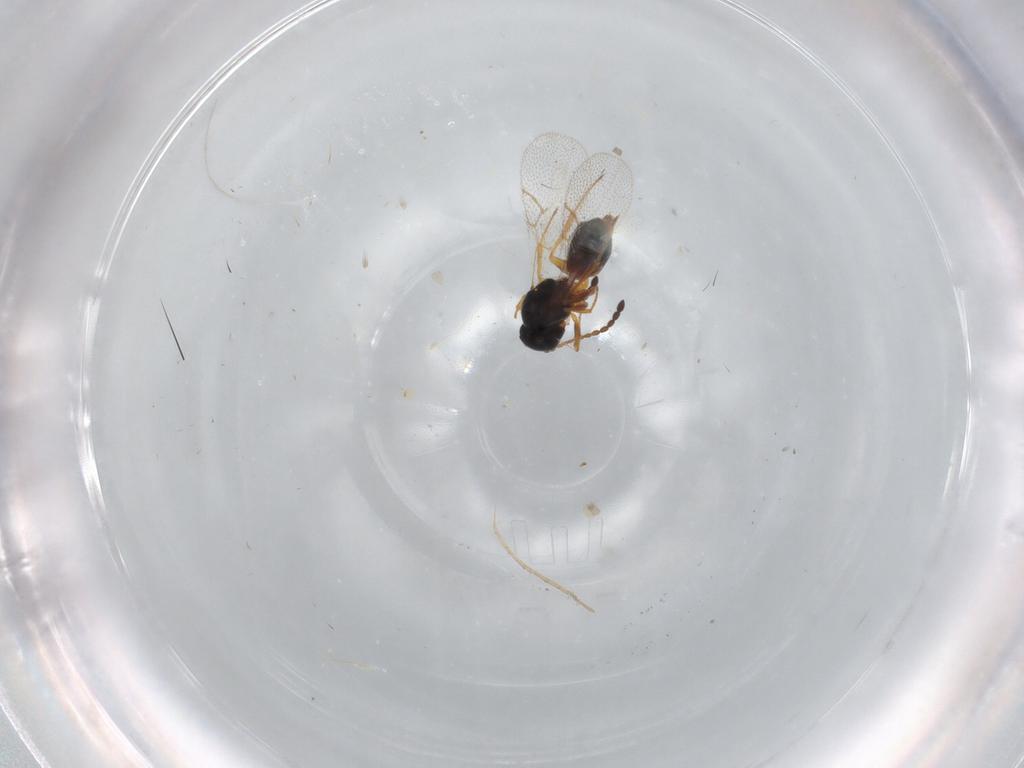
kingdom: Animalia
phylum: Arthropoda
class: Insecta
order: Hymenoptera
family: Figitidae
